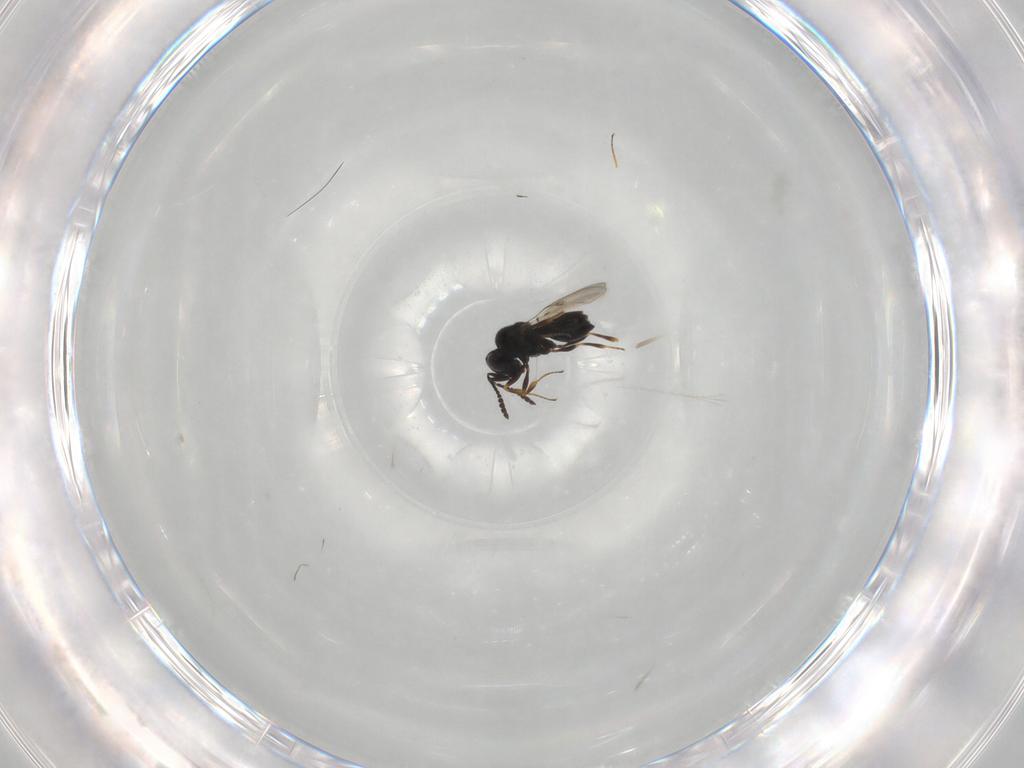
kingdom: Animalia
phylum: Arthropoda
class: Insecta
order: Hymenoptera
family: Scelionidae
